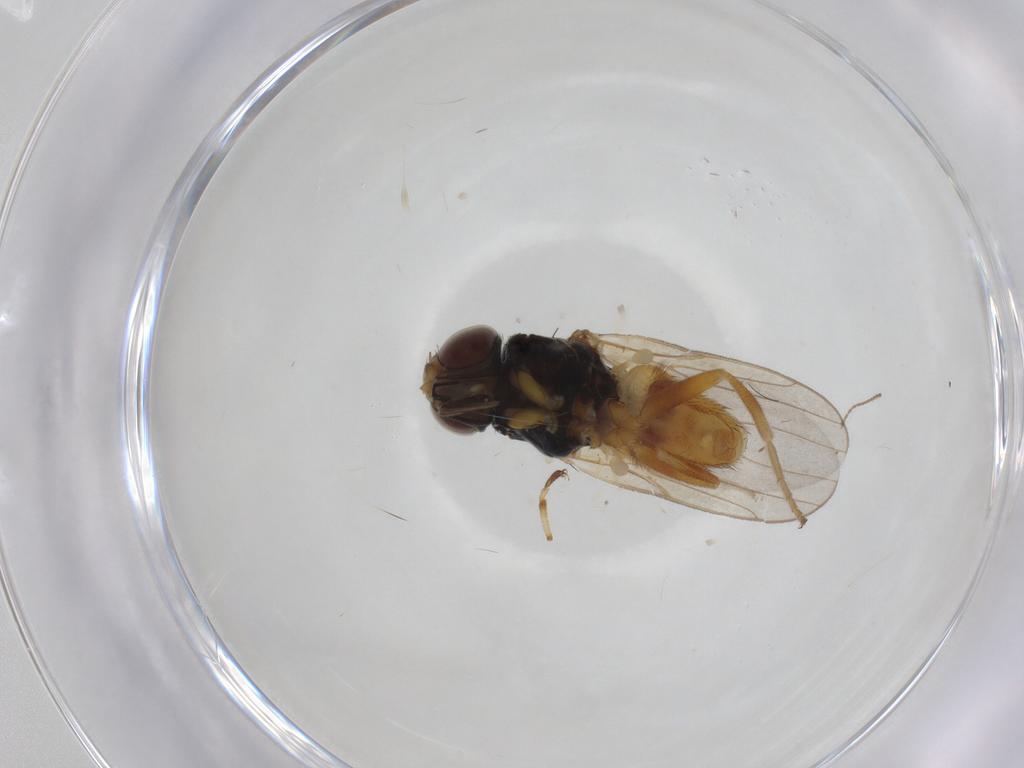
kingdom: Animalia
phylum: Arthropoda
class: Insecta
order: Diptera
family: Chloropidae
